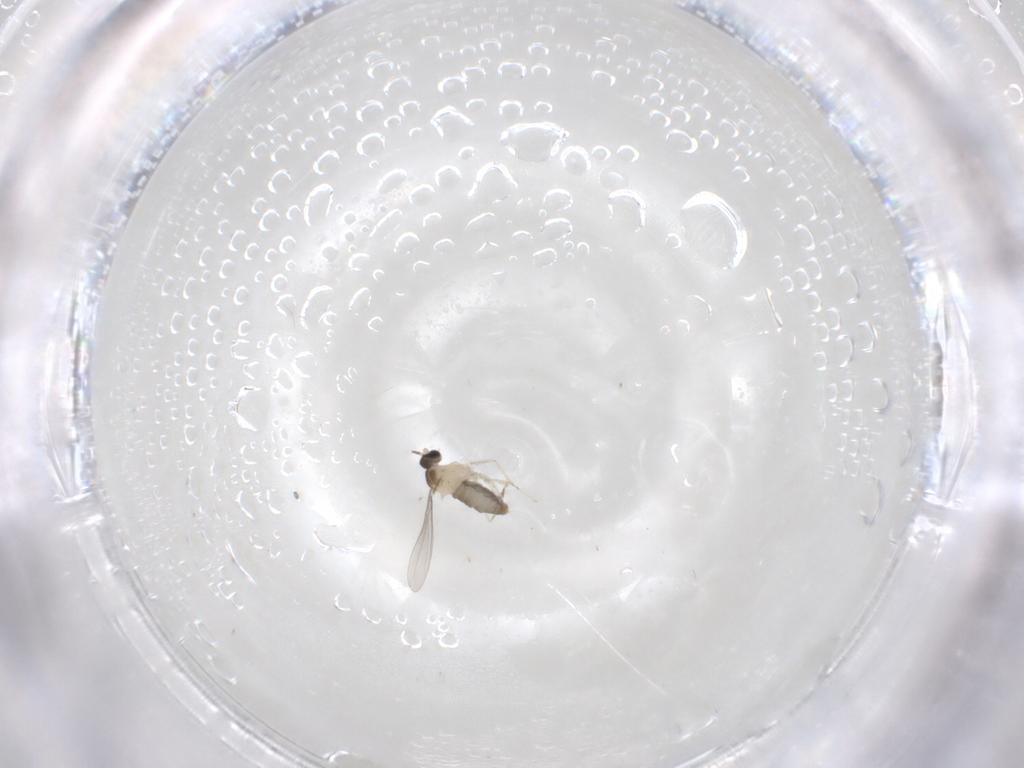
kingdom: Animalia
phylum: Arthropoda
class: Insecta
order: Diptera
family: Cecidomyiidae
